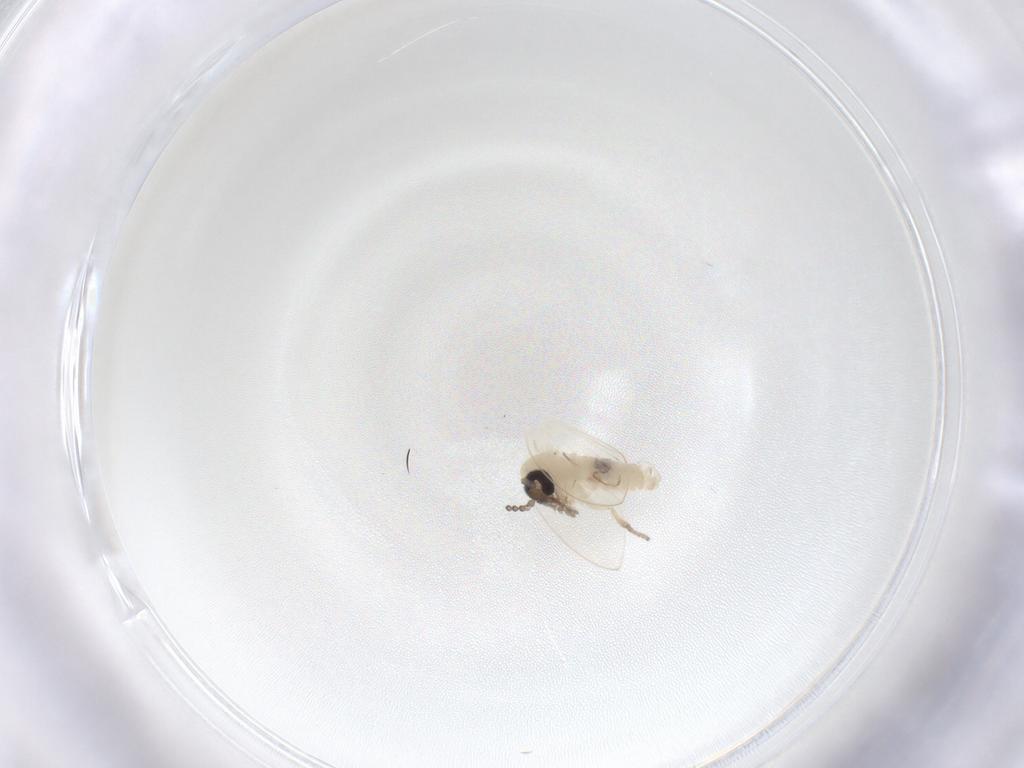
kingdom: Animalia
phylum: Arthropoda
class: Insecta
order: Diptera
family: Psychodidae
